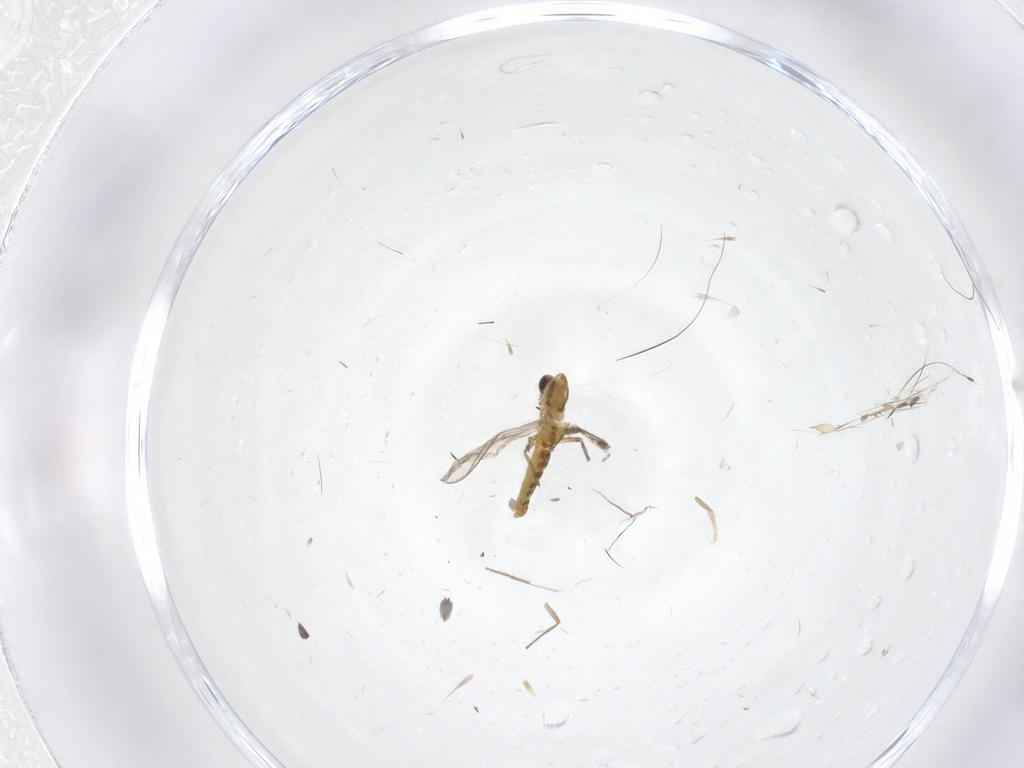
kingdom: Animalia
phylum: Arthropoda
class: Insecta
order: Diptera
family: Chironomidae
